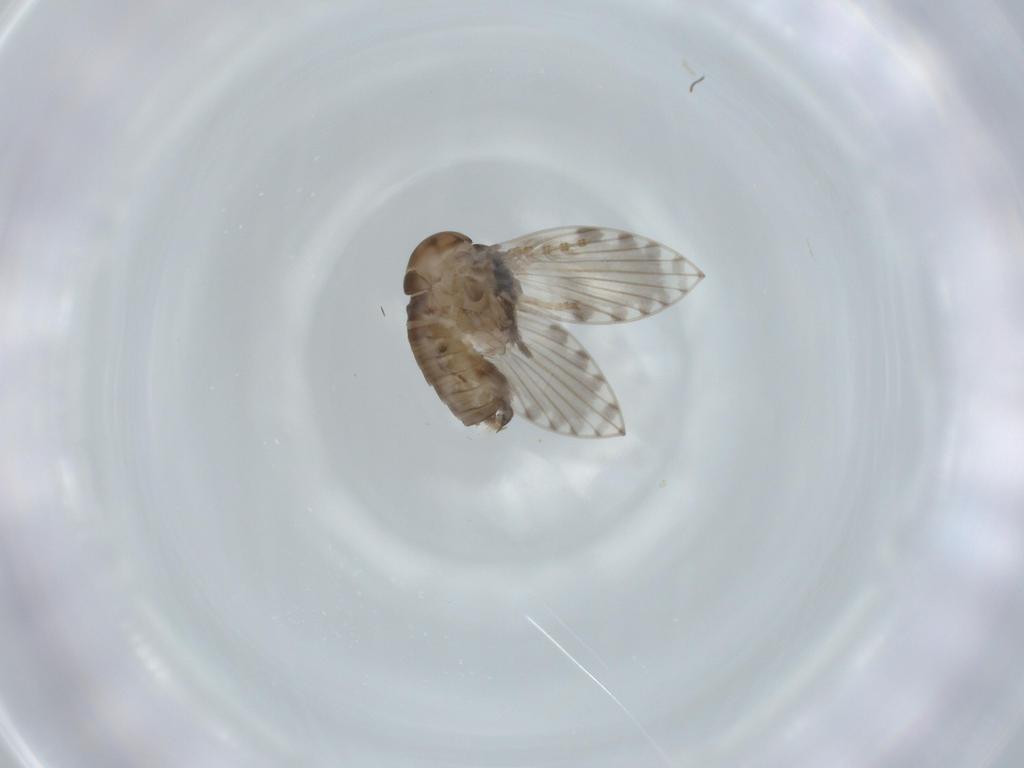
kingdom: Animalia
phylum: Arthropoda
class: Insecta
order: Diptera
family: Psychodidae
